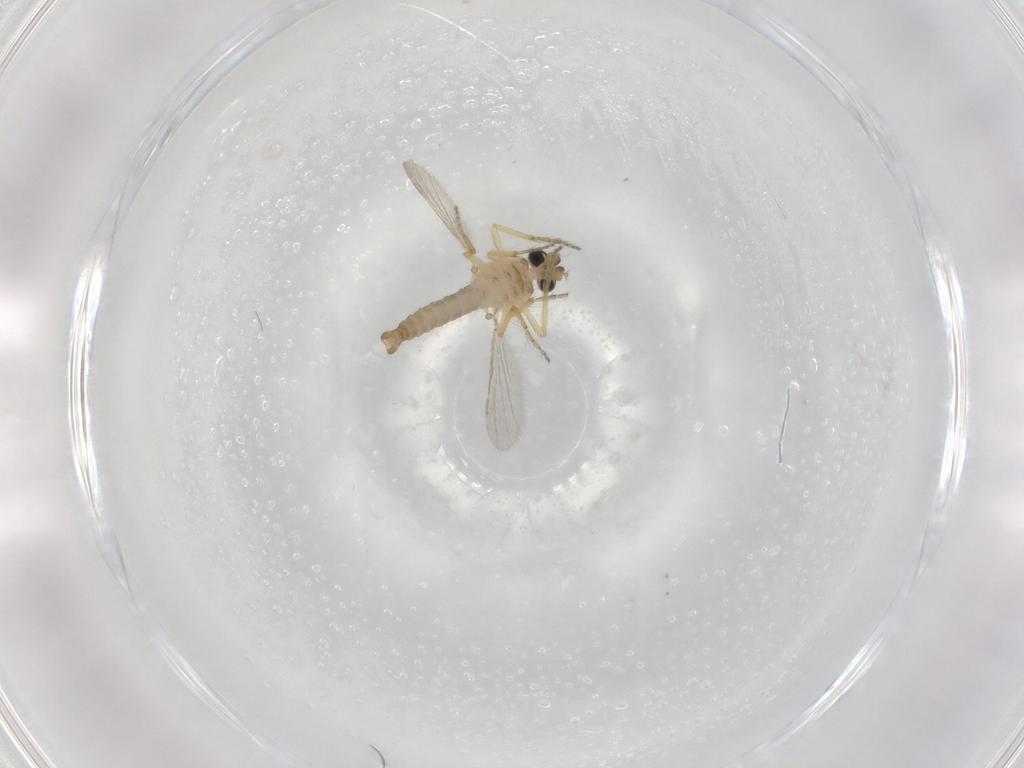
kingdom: Animalia
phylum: Arthropoda
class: Insecta
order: Diptera
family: Ceratopogonidae
